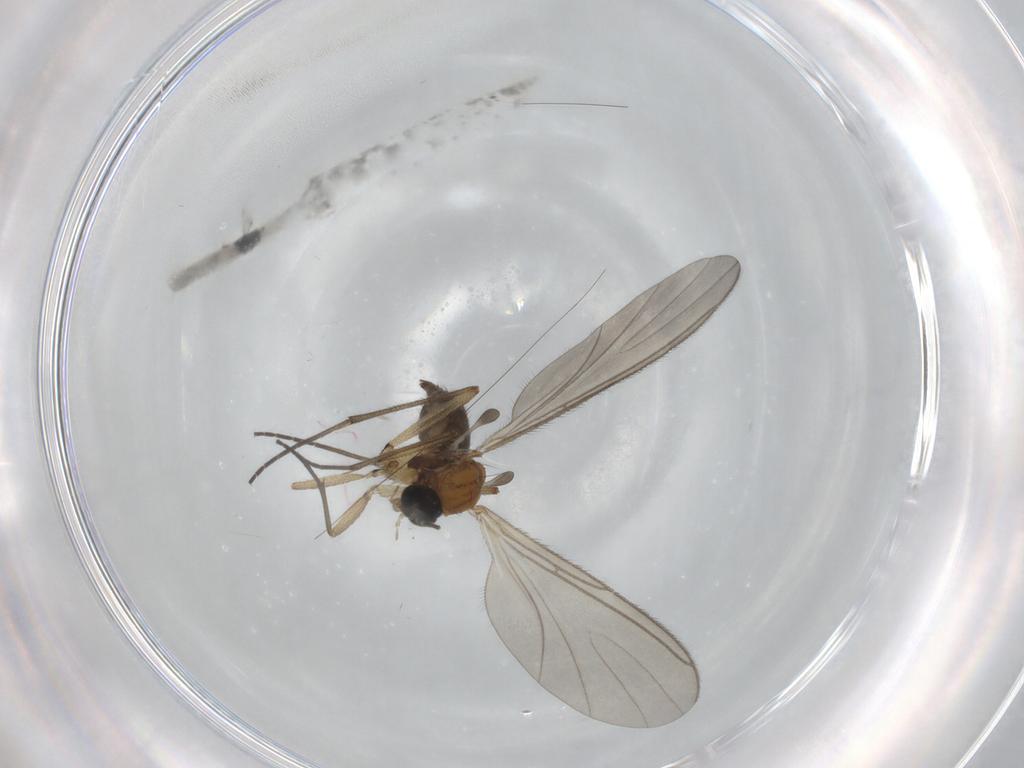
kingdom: Animalia
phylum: Arthropoda
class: Insecta
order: Diptera
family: Sciaridae
